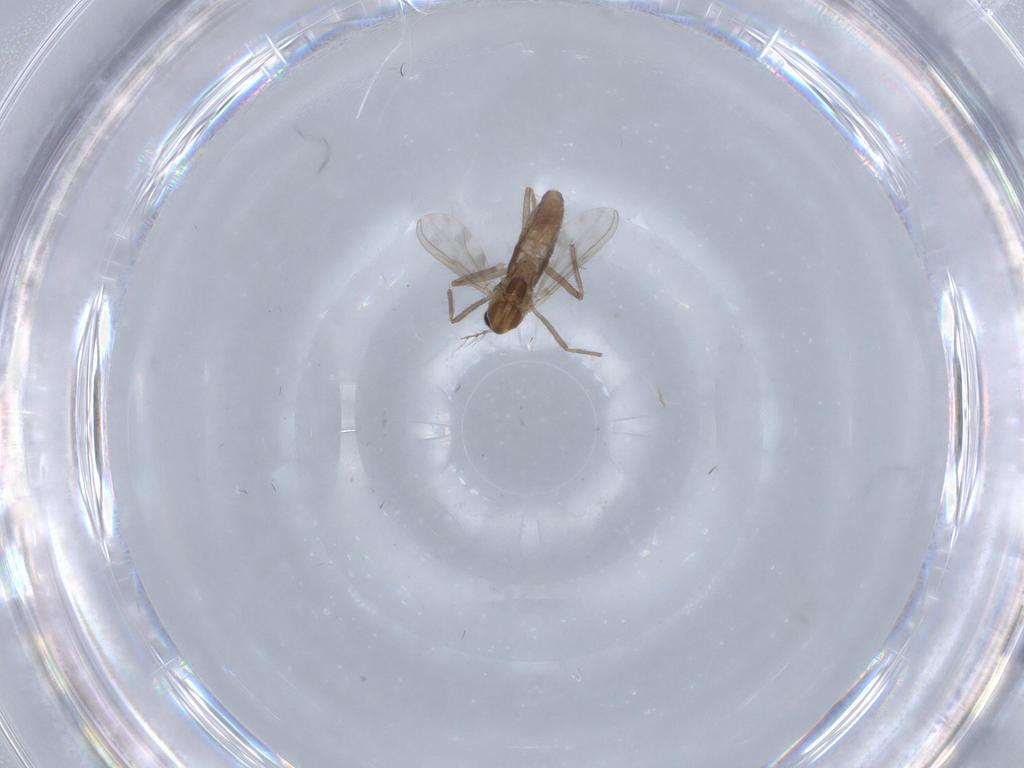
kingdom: Animalia
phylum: Arthropoda
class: Insecta
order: Diptera
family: Chironomidae
